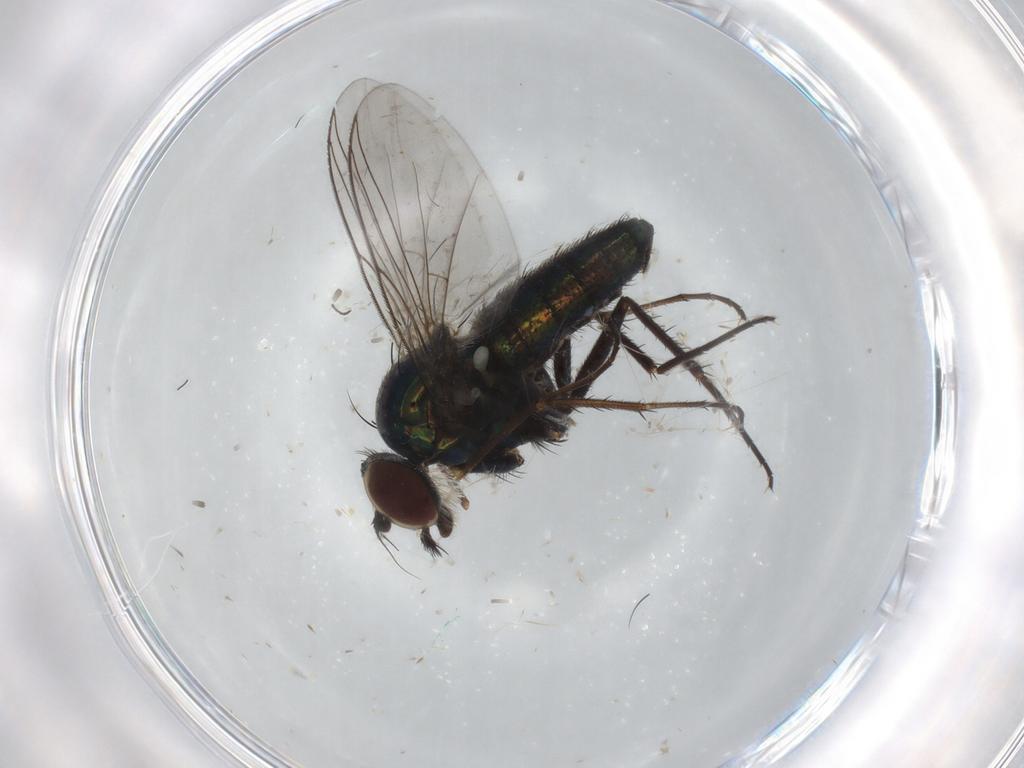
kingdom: Animalia
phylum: Arthropoda
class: Insecta
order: Diptera
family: Dolichopodidae
